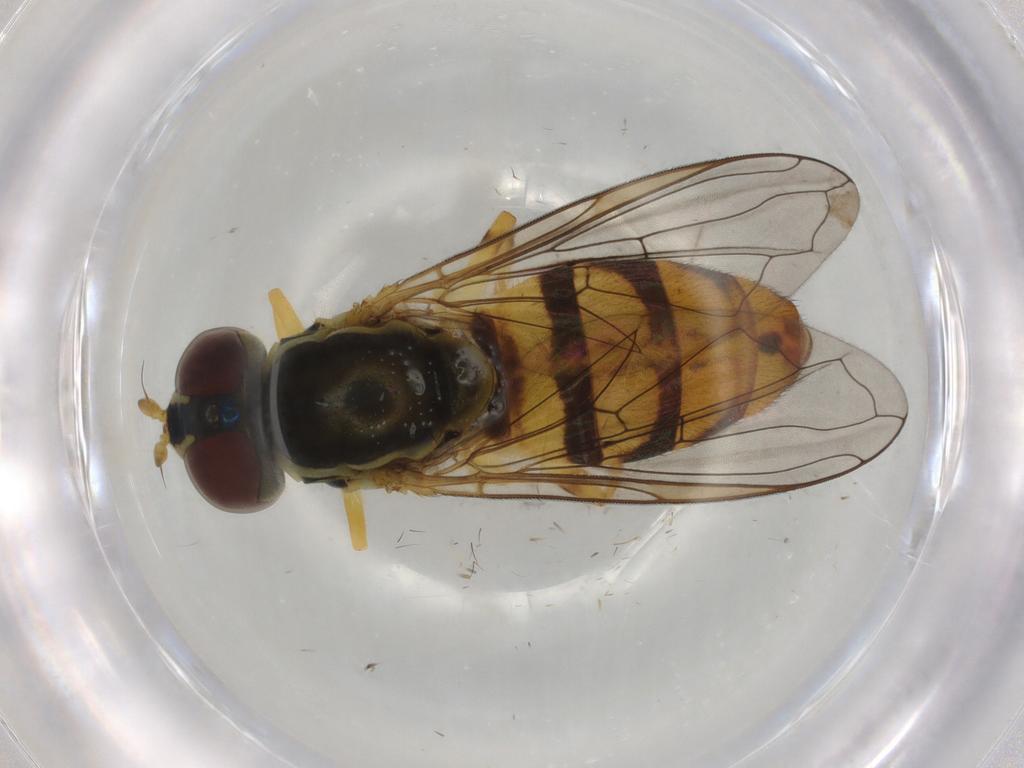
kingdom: Animalia
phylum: Arthropoda
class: Insecta
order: Diptera
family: Syrphidae
